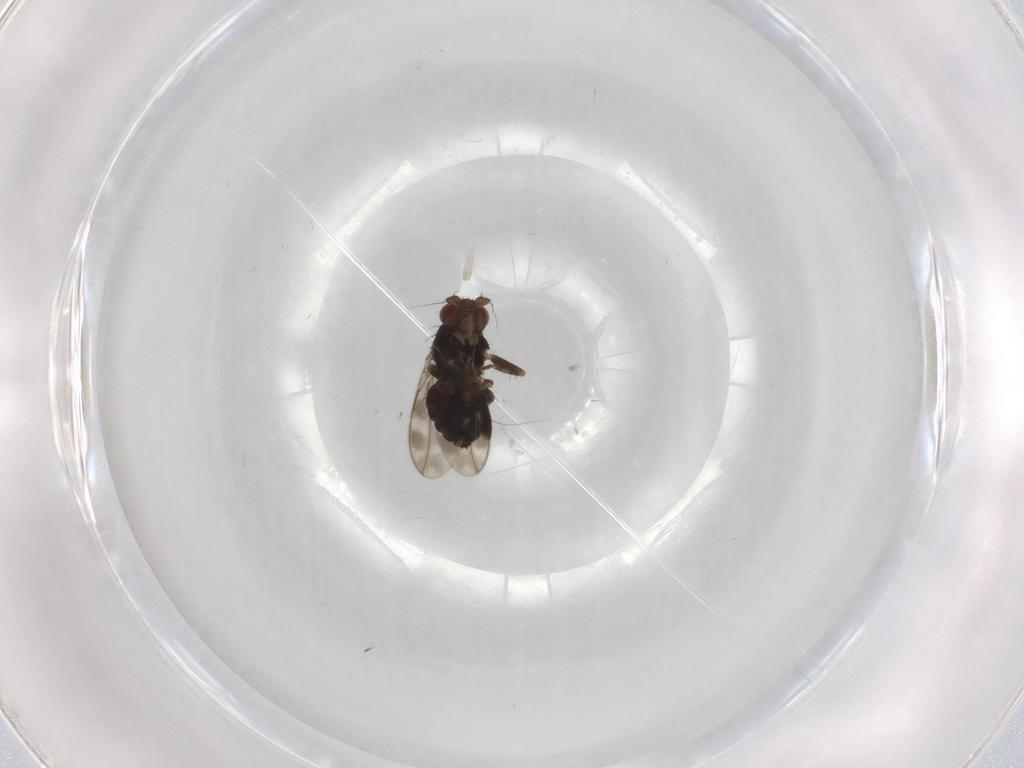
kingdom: Animalia
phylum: Arthropoda
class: Insecta
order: Diptera
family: Sphaeroceridae
